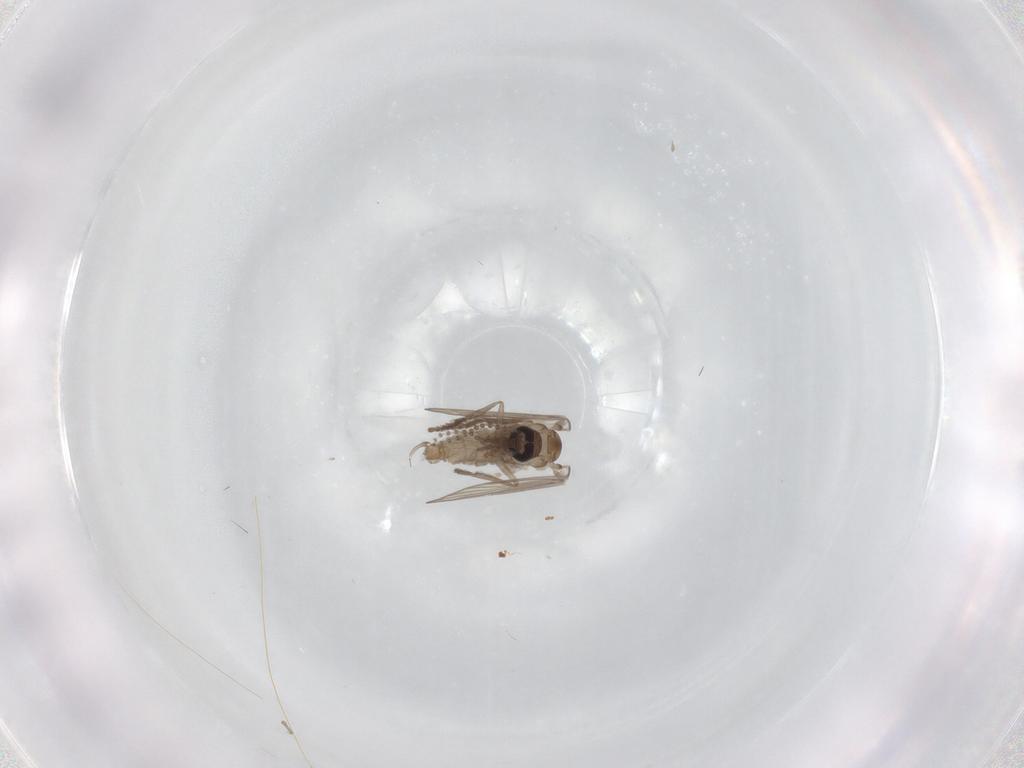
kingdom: Animalia
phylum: Arthropoda
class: Insecta
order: Diptera
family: Psychodidae
